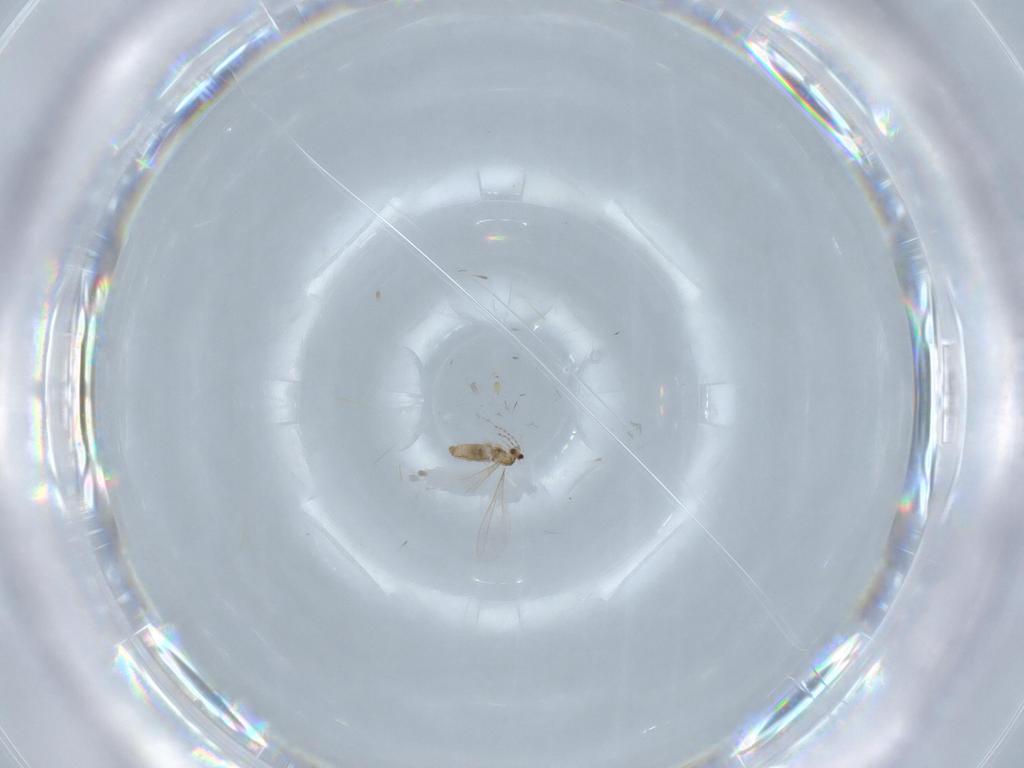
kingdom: Animalia
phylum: Arthropoda
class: Insecta
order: Diptera
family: Cecidomyiidae
